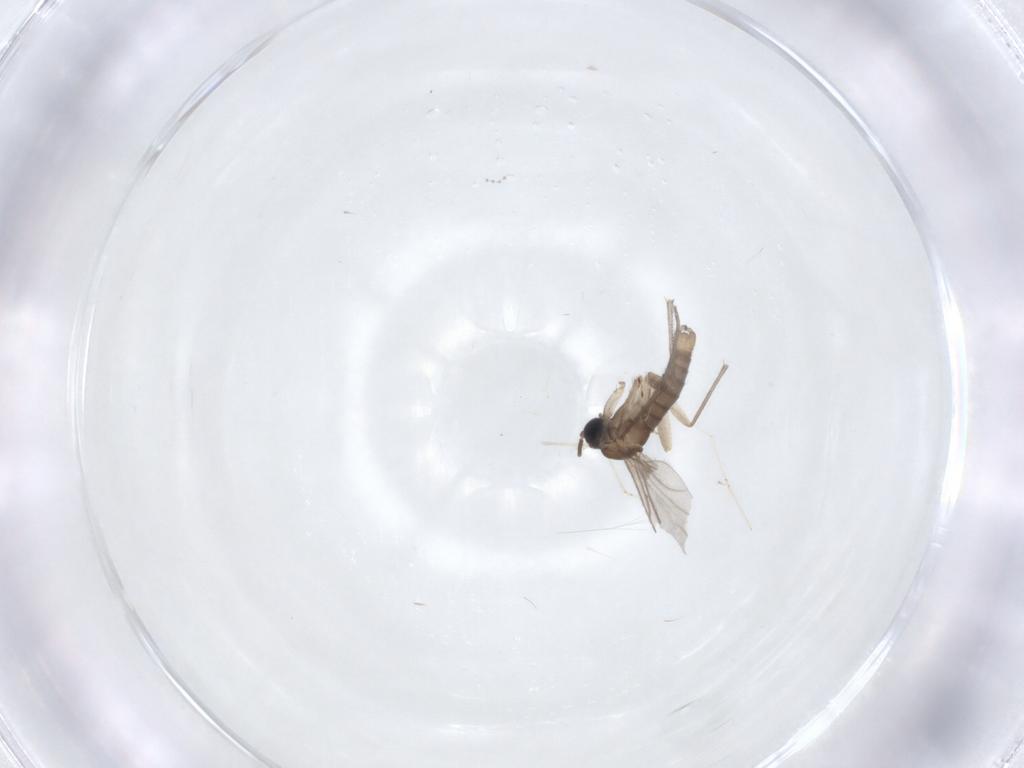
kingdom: Animalia
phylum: Arthropoda
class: Insecta
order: Diptera
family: Sciaridae
